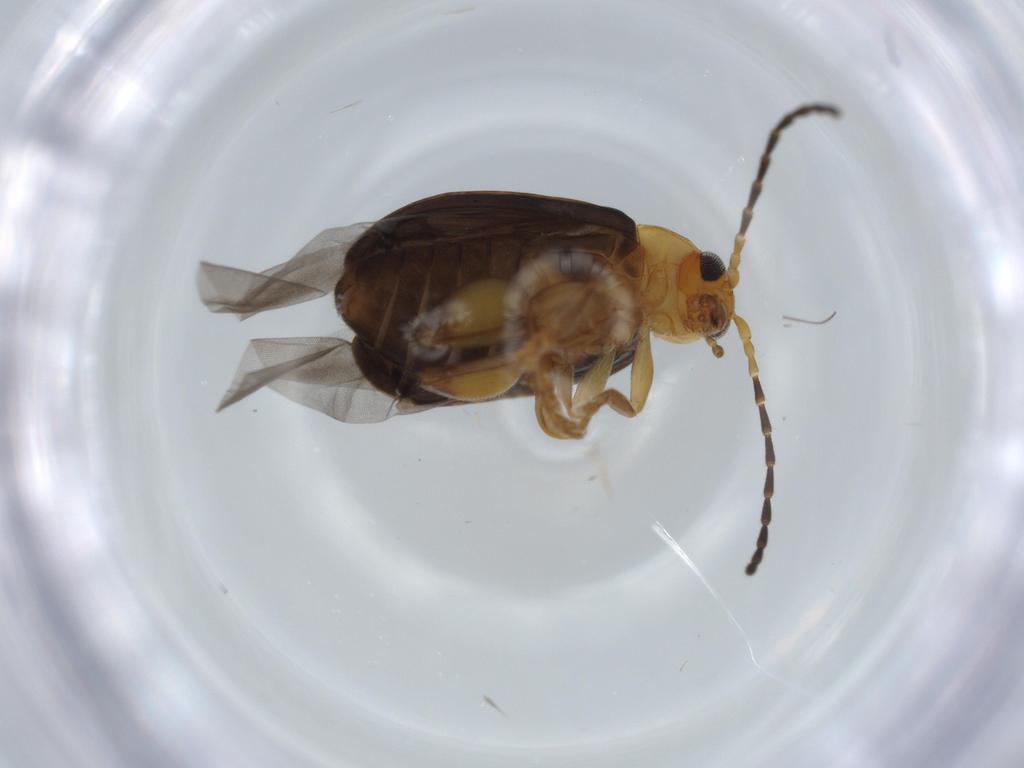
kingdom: Animalia
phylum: Arthropoda
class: Insecta
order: Coleoptera
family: Chrysomelidae
